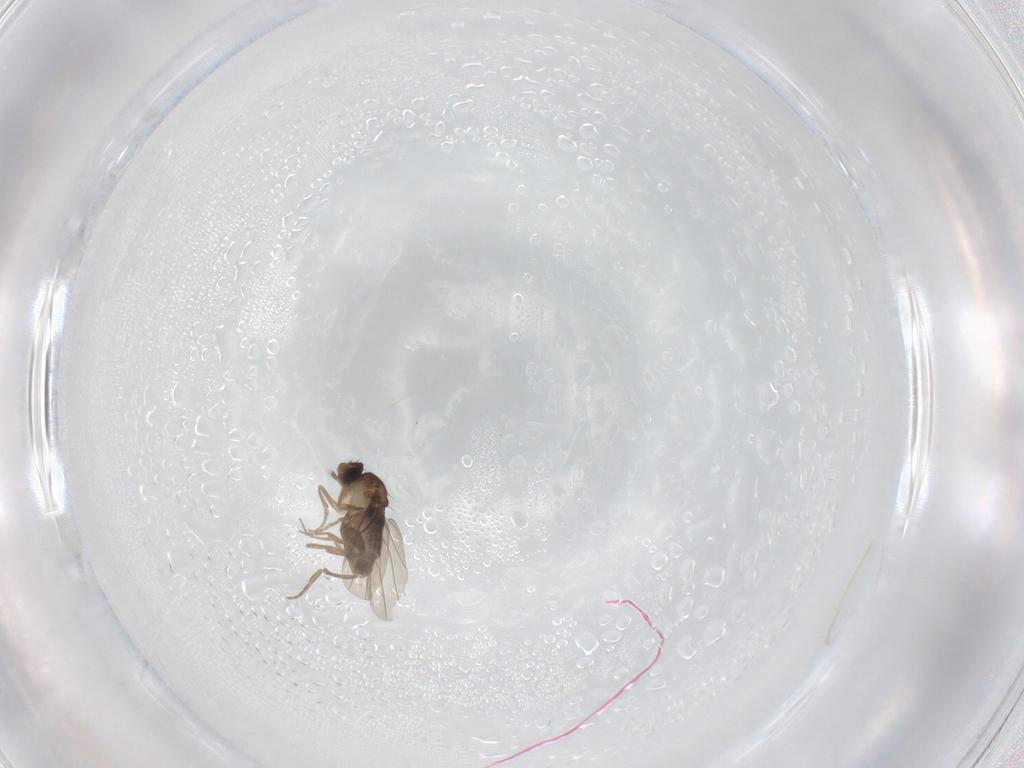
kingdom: Animalia
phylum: Arthropoda
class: Insecta
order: Diptera
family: Phoridae
